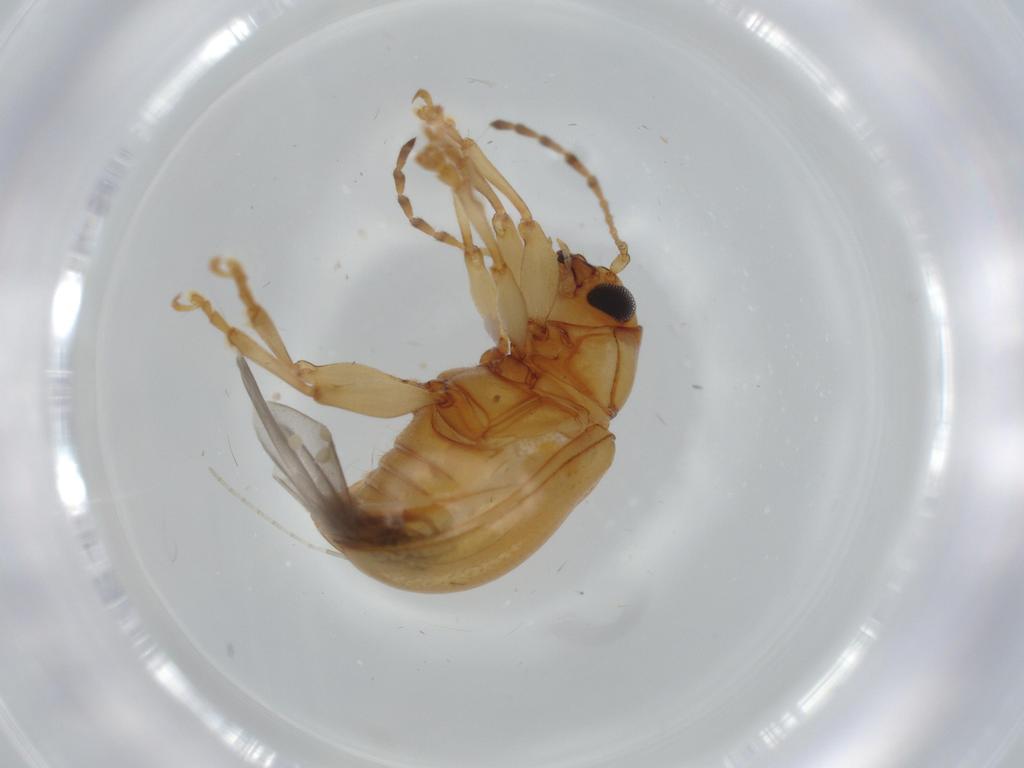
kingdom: Animalia
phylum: Arthropoda
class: Insecta
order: Coleoptera
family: Chrysomelidae
